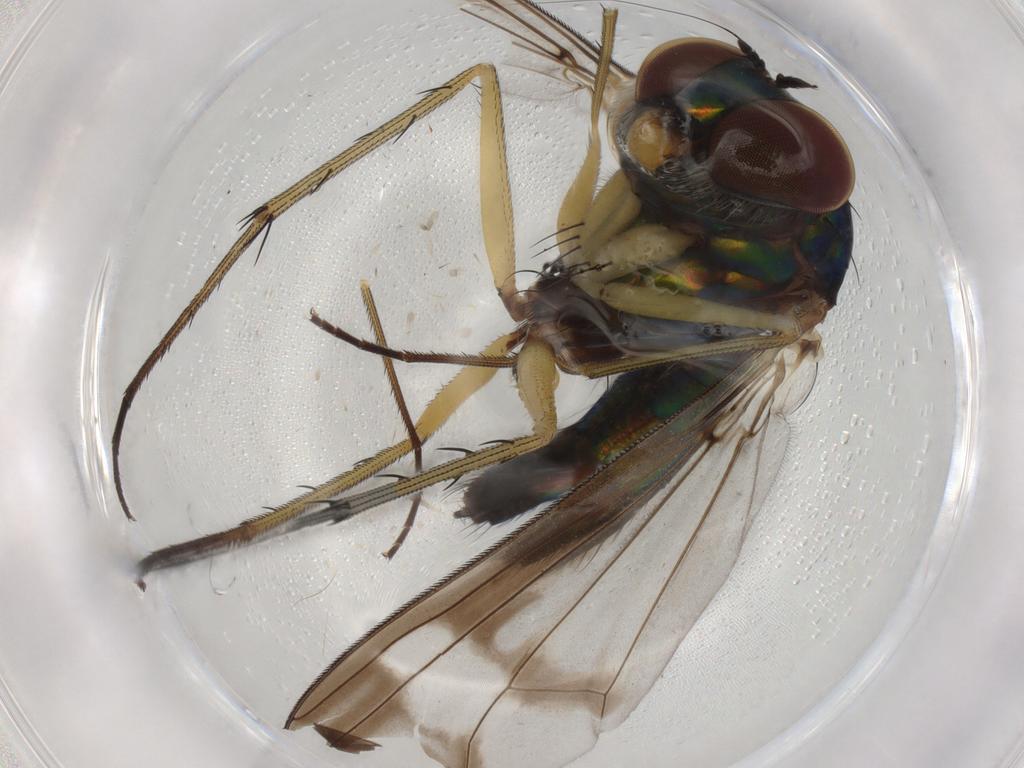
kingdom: Animalia
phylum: Arthropoda
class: Insecta
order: Diptera
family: Dolichopodidae
